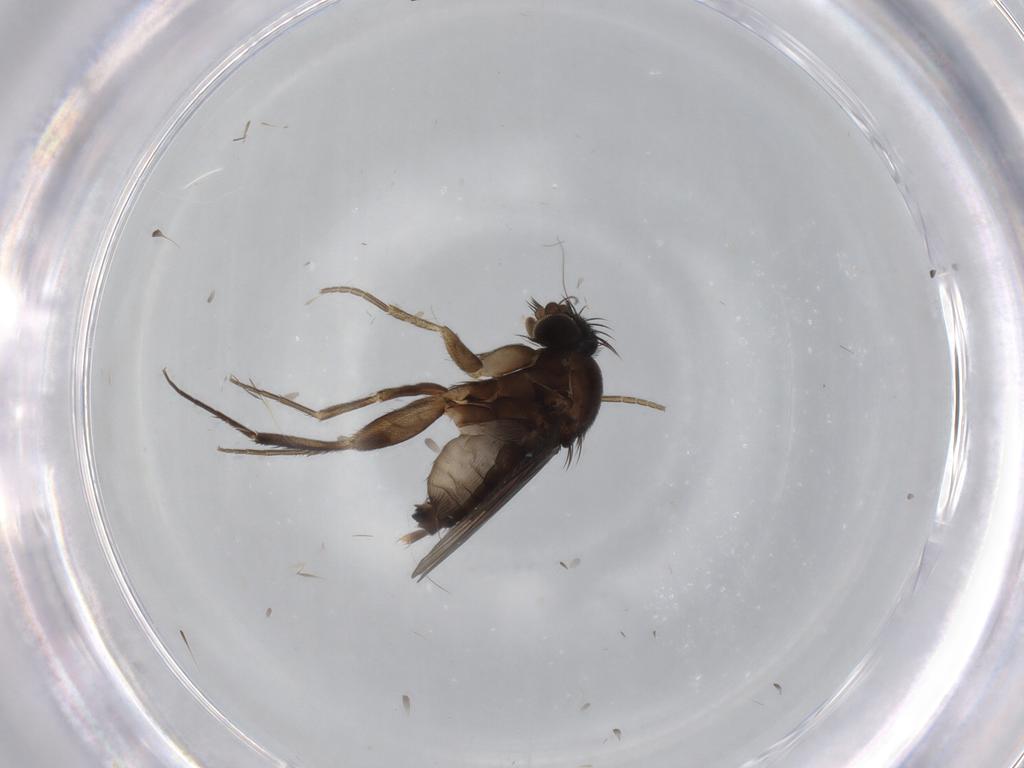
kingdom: Animalia
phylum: Arthropoda
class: Insecta
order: Diptera
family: Phoridae
